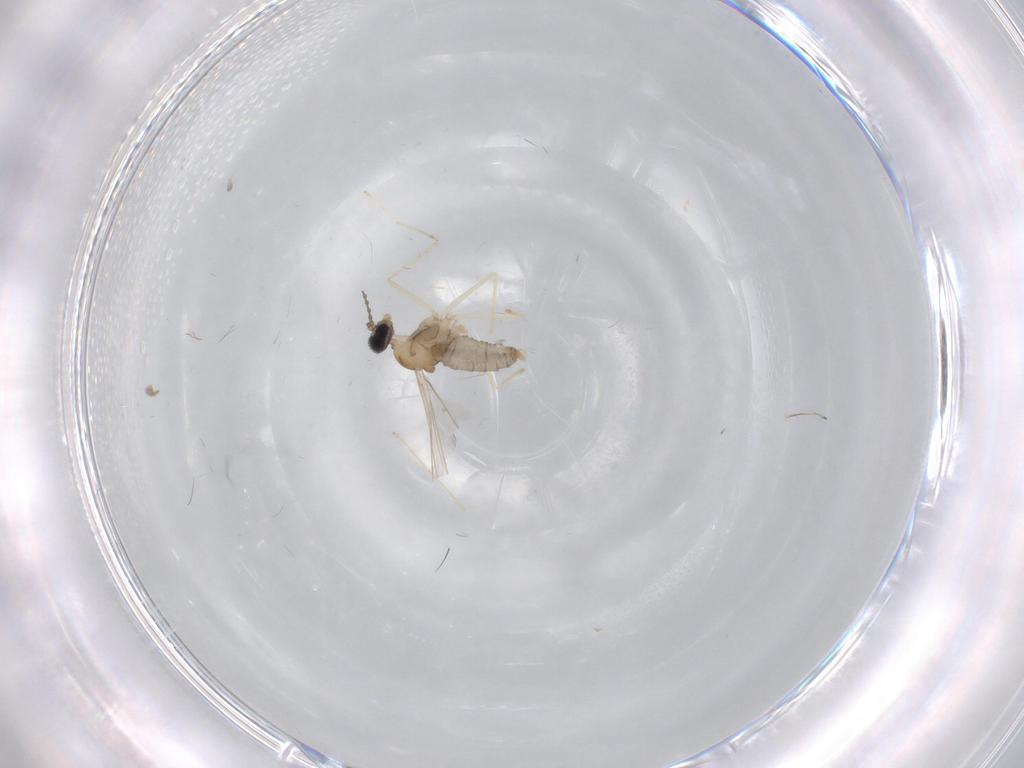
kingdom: Animalia
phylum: Arthropoda
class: Insecta
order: Diptera
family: Cecidomyiidae
